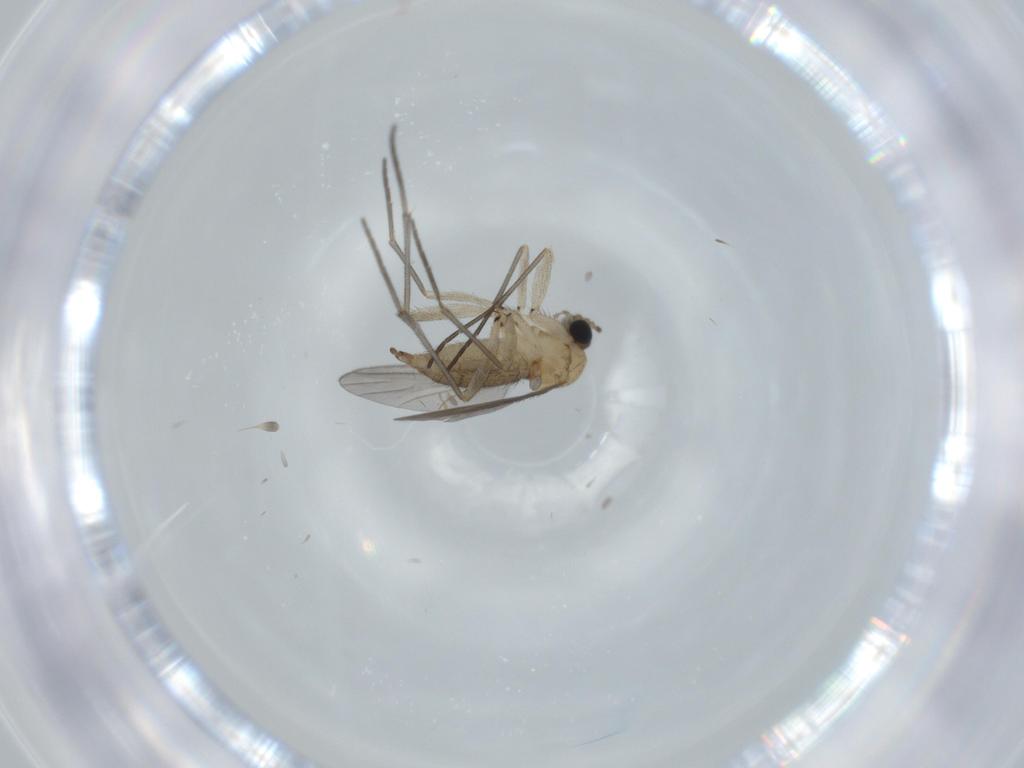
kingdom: Animalia
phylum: Arthropoda
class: Insecta
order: Diptera
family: Sciaridae
